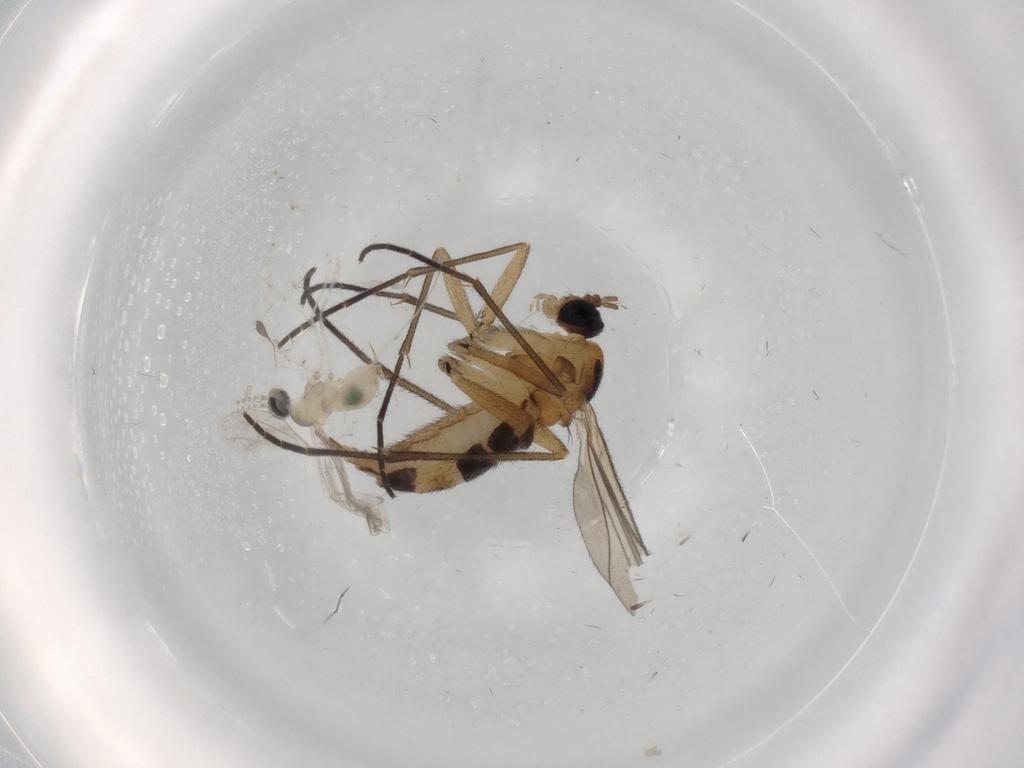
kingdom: Animalia
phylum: Arthropoda
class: Insecta
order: Diptera
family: Cecidomyiidae
